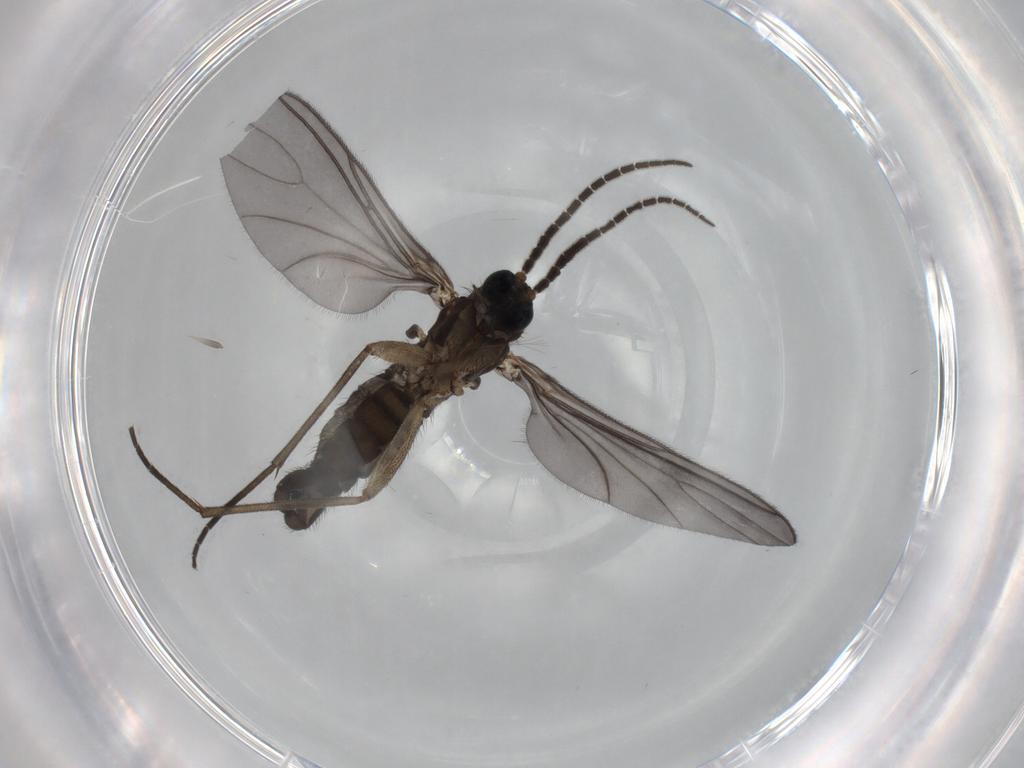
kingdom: Animalia
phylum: Arthropoda
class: Insecta
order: Diptera
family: Sciaridae
